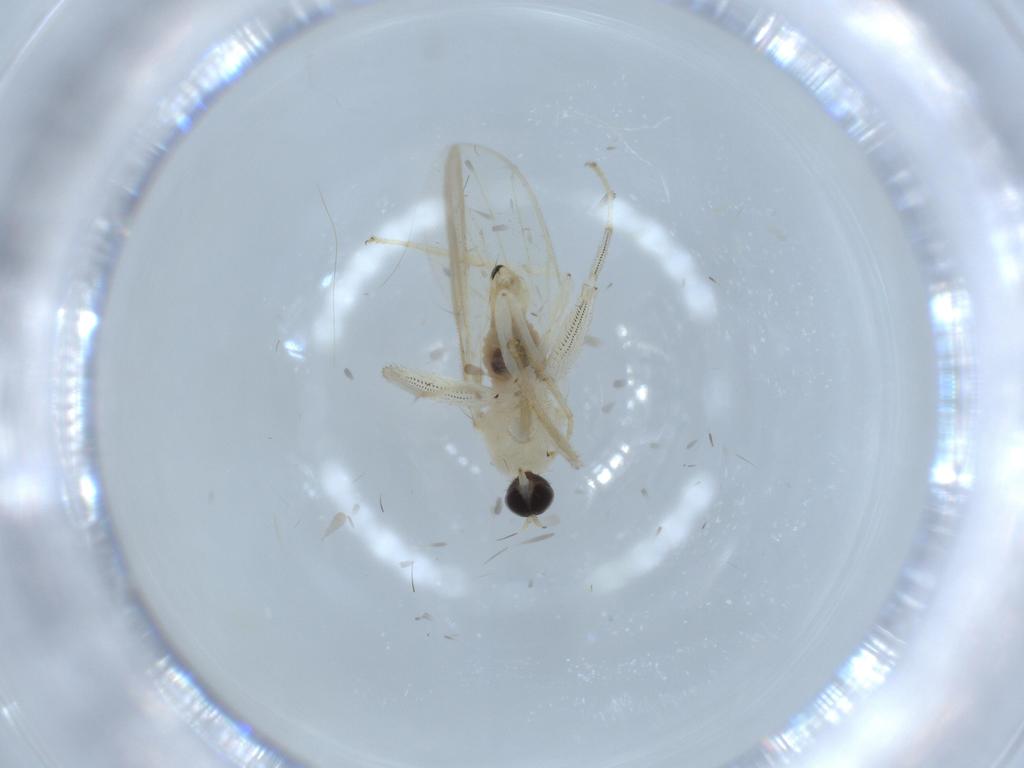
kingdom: Animalia
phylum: Arthropoda
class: Insecta
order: Diptera
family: Hybotidae
